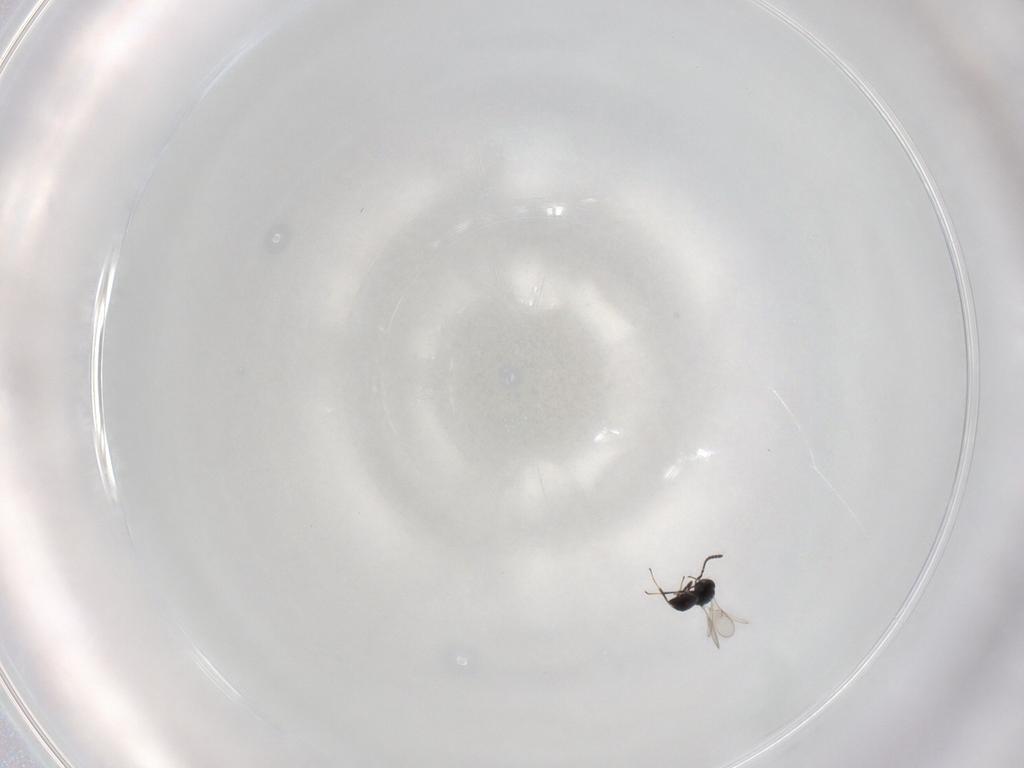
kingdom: Animalia
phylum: Arthropoda
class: Insecta
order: Hymenoptera
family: Scelionidae
